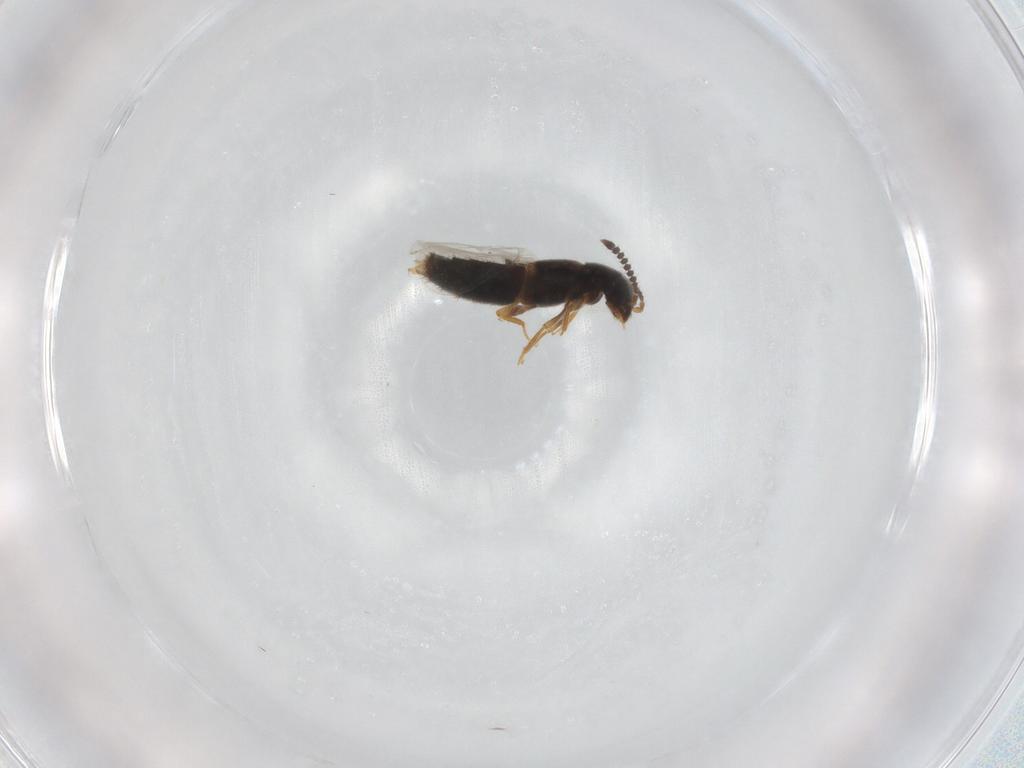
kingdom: Animalia
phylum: Arthropoda
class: Insecta
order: Coleoptera
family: Staphylinidae
